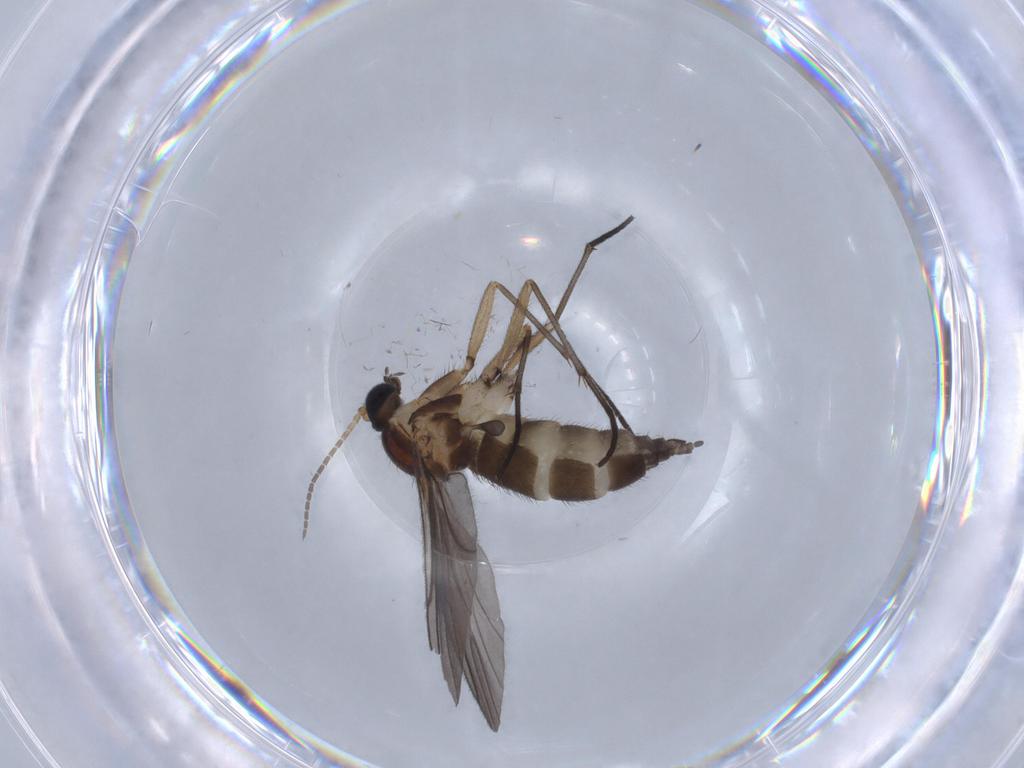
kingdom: Animalia
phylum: Arthropoda
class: Insecta
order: Diptera
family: Sciaridae
